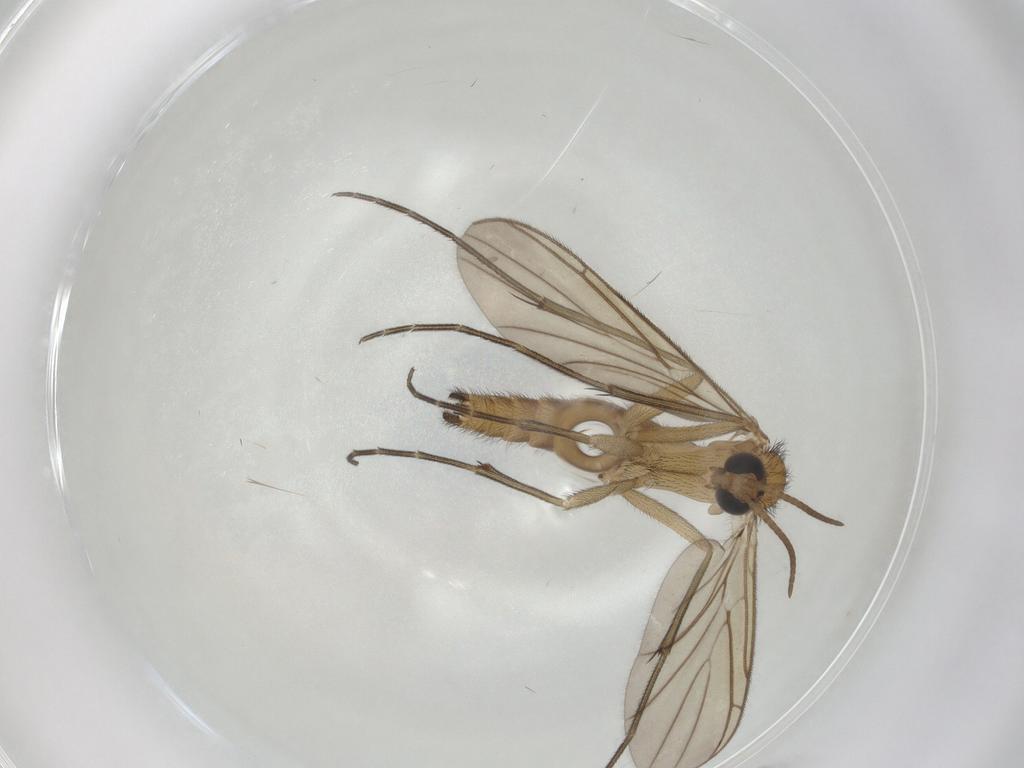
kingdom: Animalia
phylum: Arthropoda
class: Insecta
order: Diptera
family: Keroplatidae
